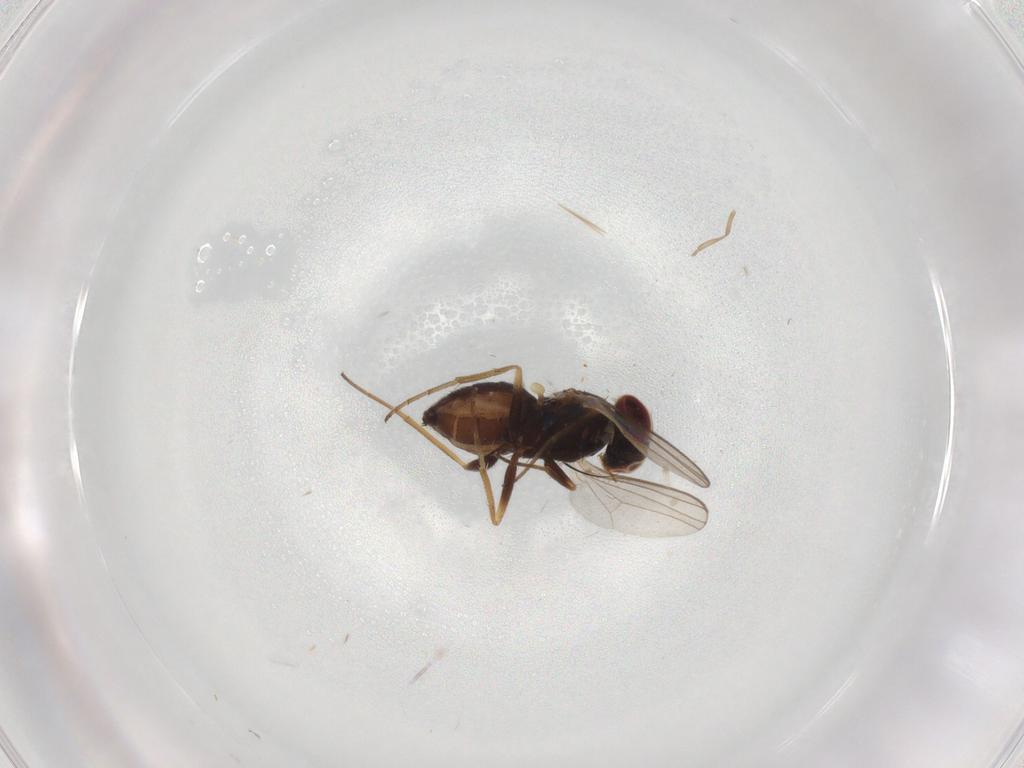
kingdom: Animalia
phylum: Arthropoda
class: Insecta
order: Diptera
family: Dolichopodidae
